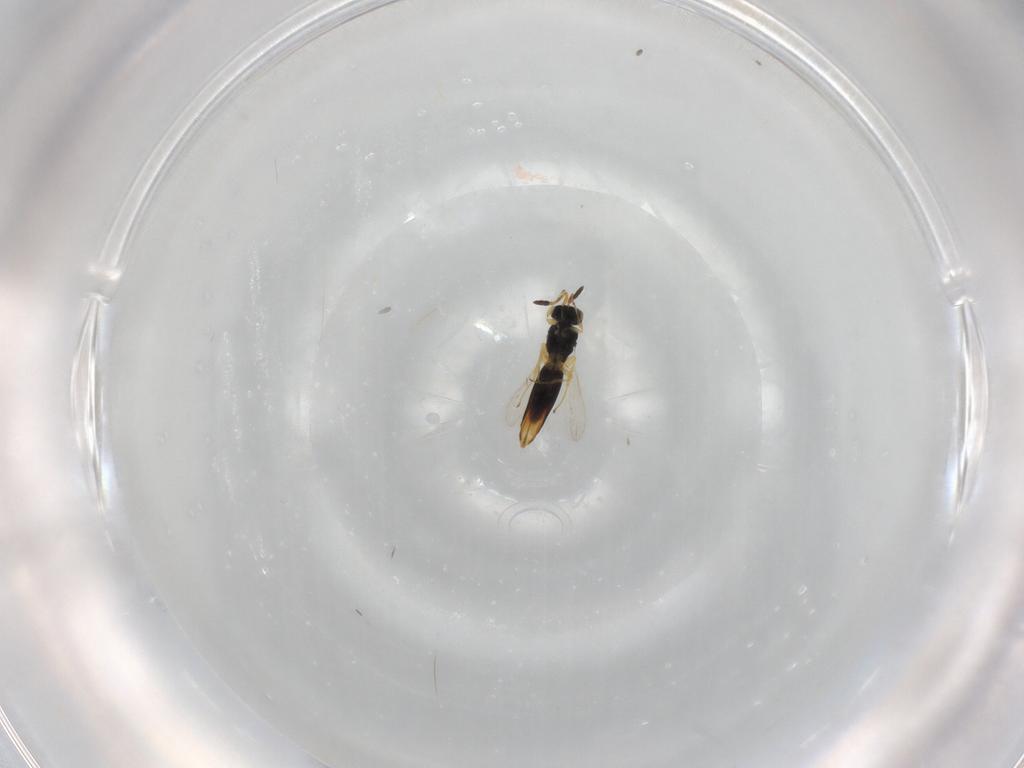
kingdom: Animalia
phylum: Arthropoda
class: Insecta
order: Hymenoptera
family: Scelionidae
